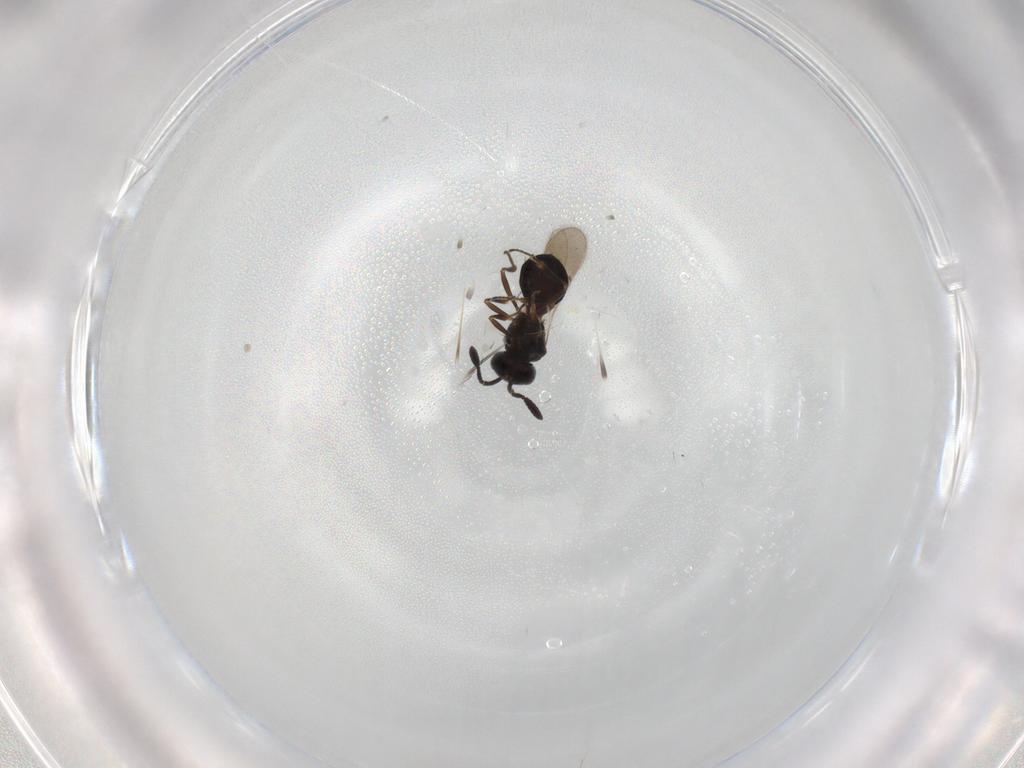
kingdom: Animalia
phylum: Arthropoda
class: Insecta
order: Hymenoptera
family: Scelionidae
